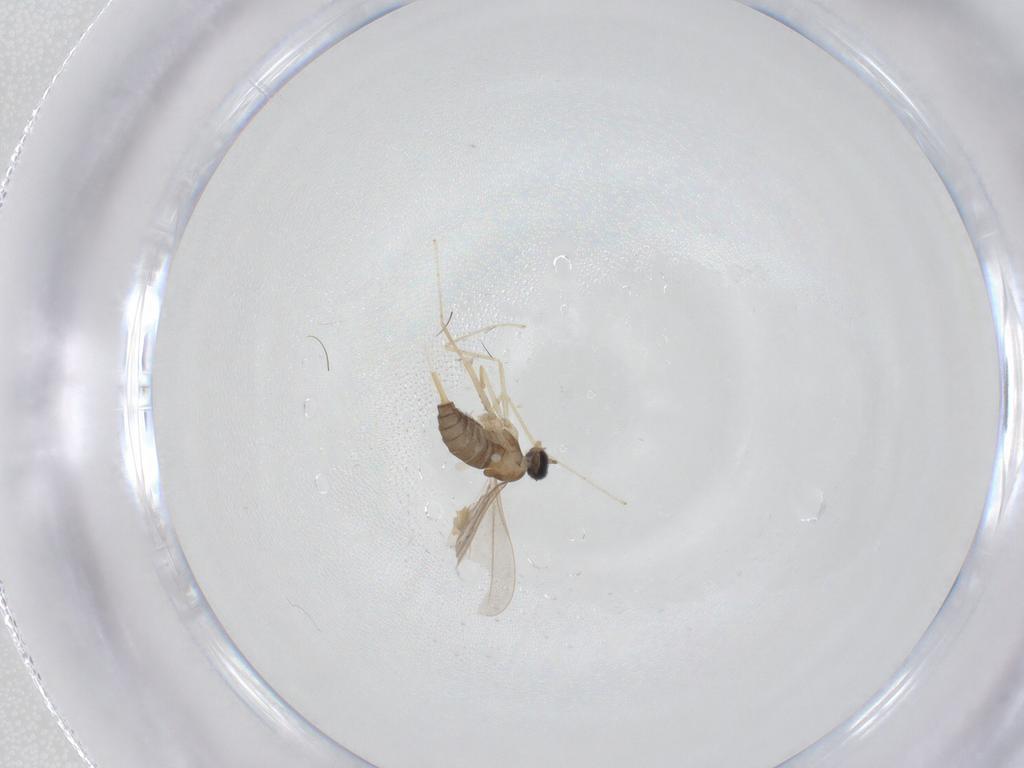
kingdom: Animalia
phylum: Arthropoda
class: Insecta
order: Diptera
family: Cecidomyiidae
